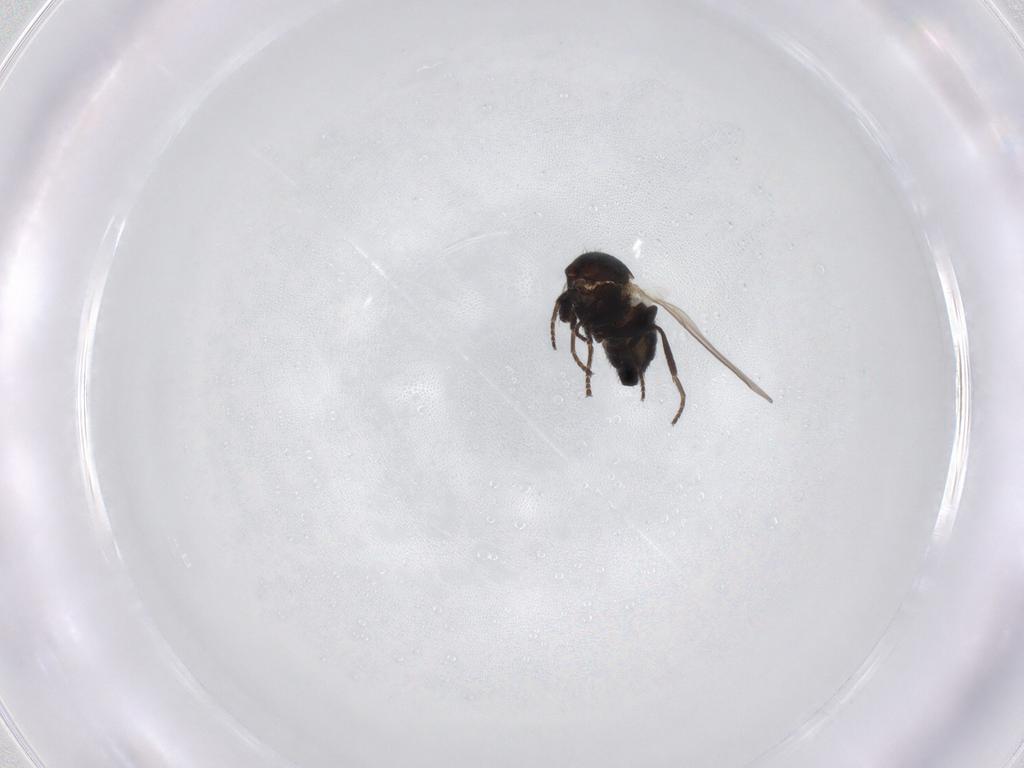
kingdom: Animalia
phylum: Arthropoda
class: Insecta
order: Diptera
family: Agromyzidae
